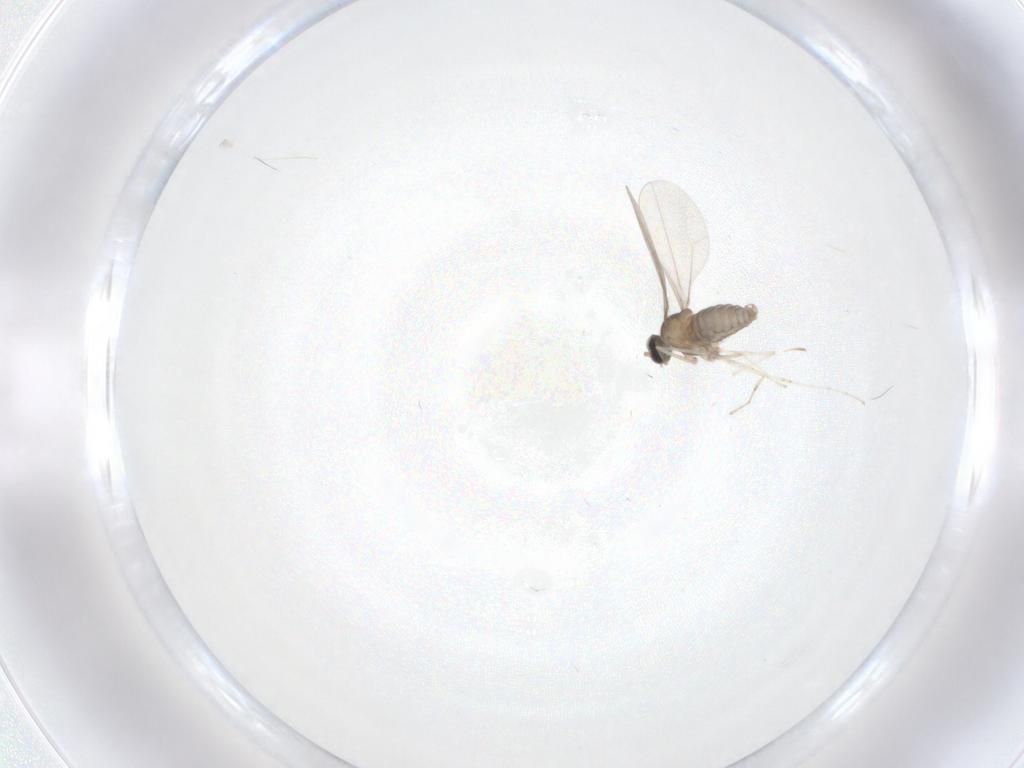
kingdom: Animalia
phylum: Arthropoda
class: Insecta
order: Diptera
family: Cecidomyiidae
